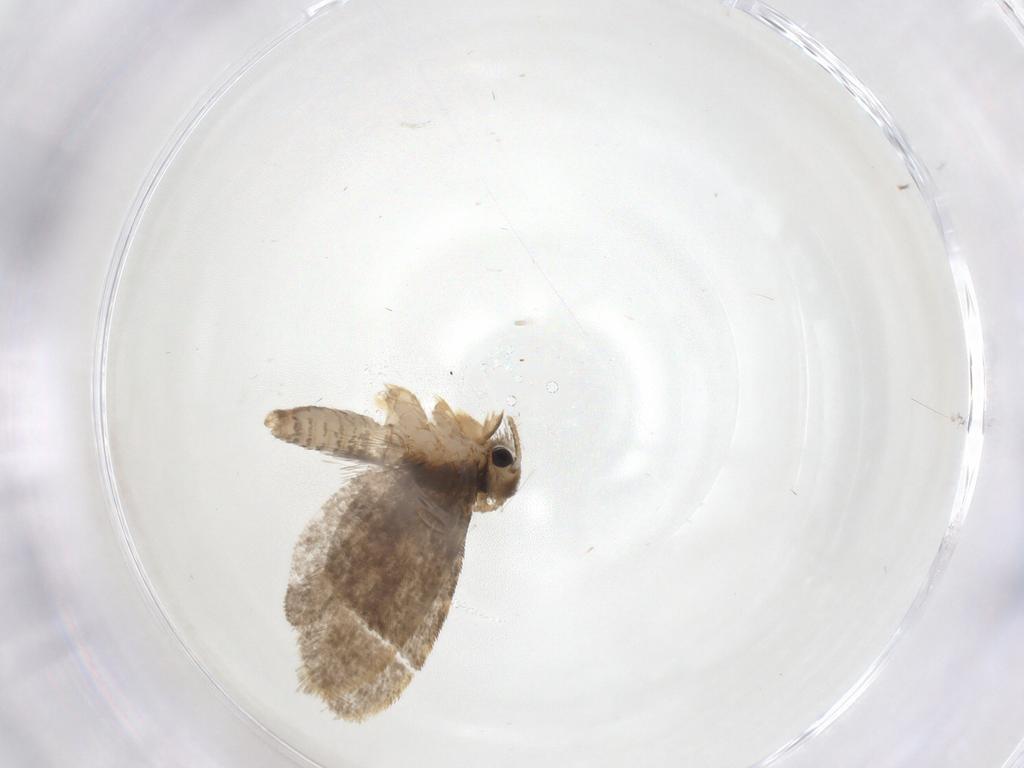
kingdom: Animalia
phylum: Arthropoda
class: Insecta
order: Lepidoptera
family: Psychidae
